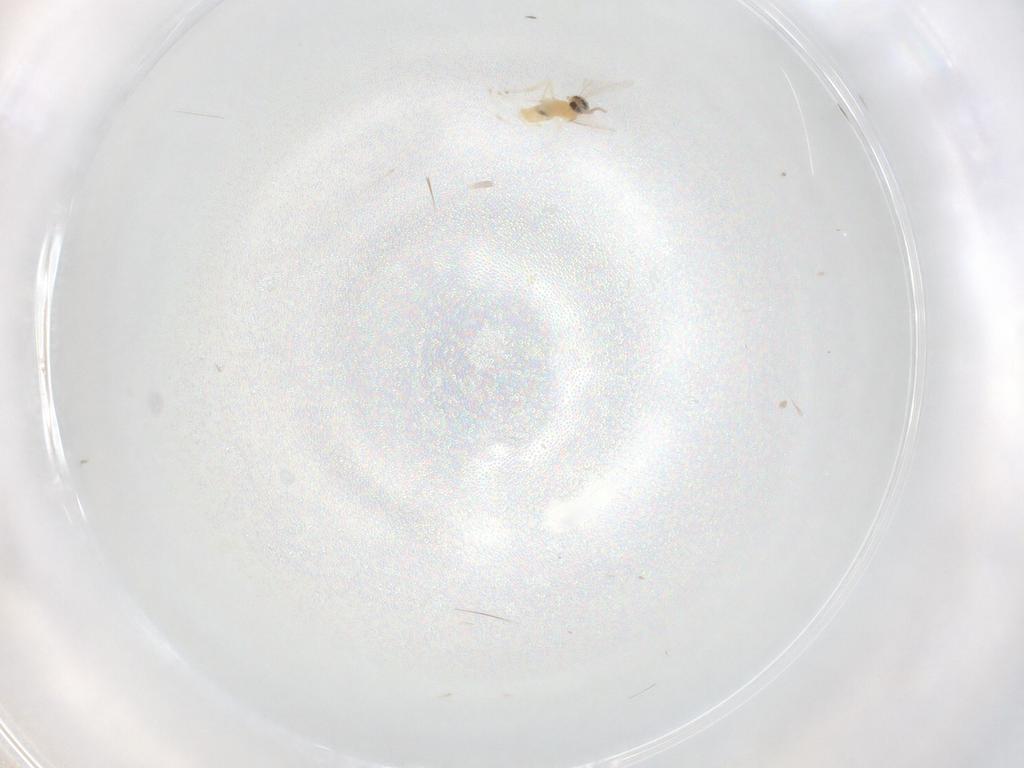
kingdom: Animalia
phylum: Arthropoda
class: Insecta
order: Diptera
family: Cecidomyiidae
